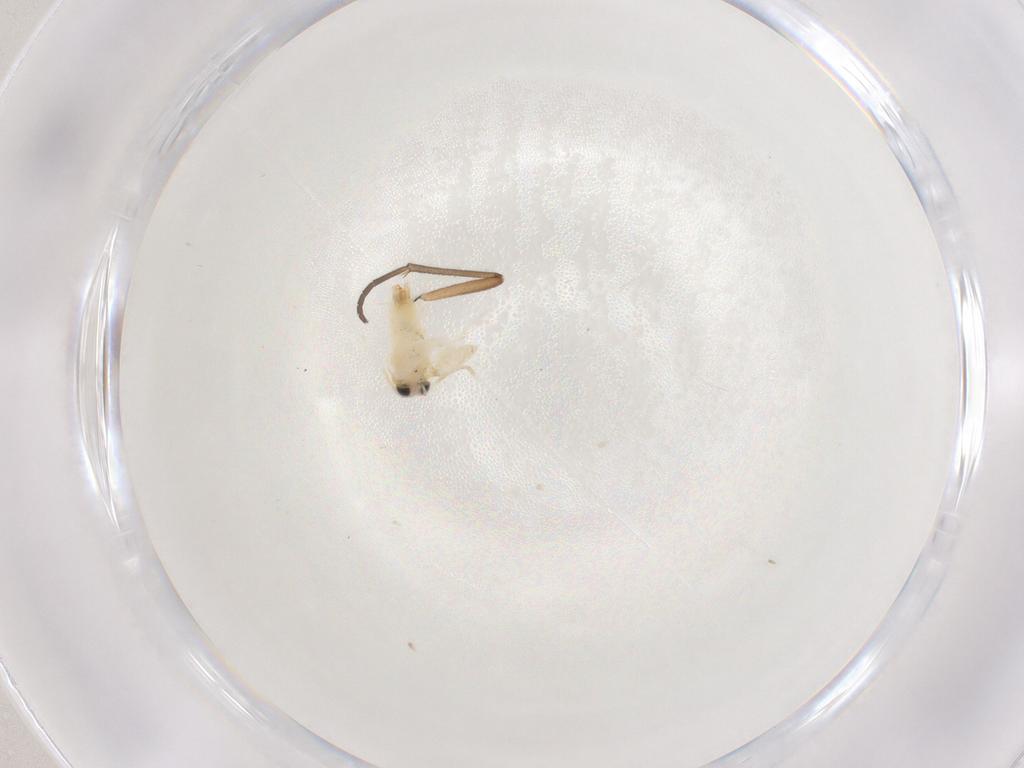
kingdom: Animalia
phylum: Arthropoda
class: Insecta
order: Lepidoptera
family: Crambidae
